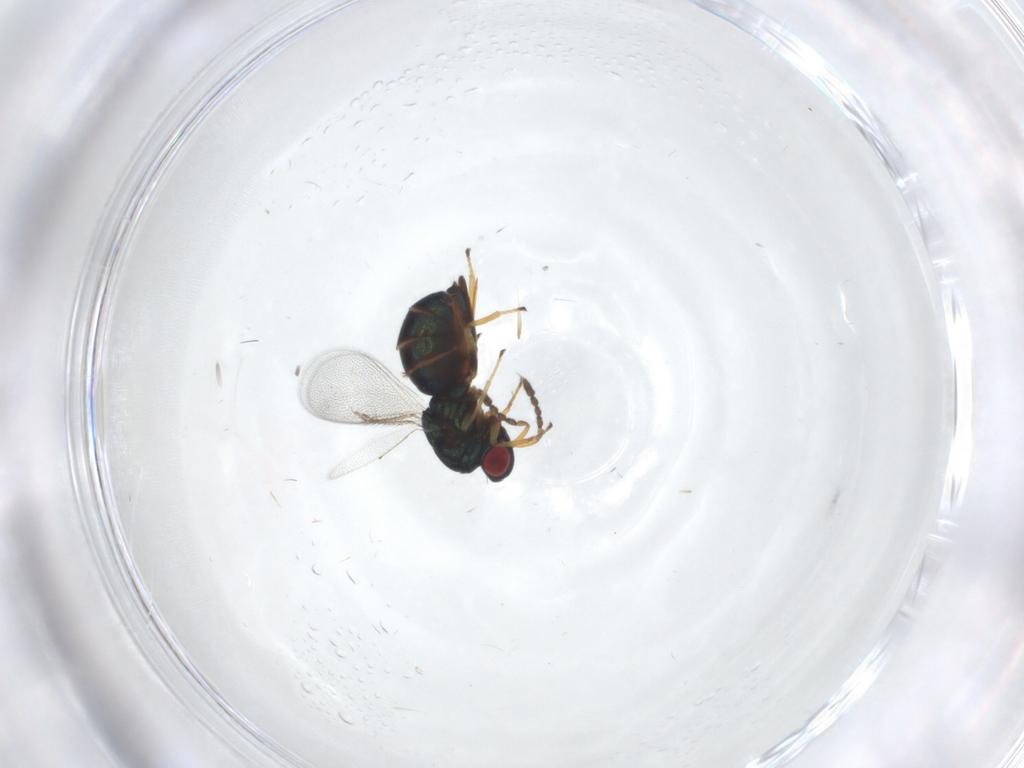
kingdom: Animalia
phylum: Arthropoda
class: Insecta
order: Hymenoptera
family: Eulophidae
